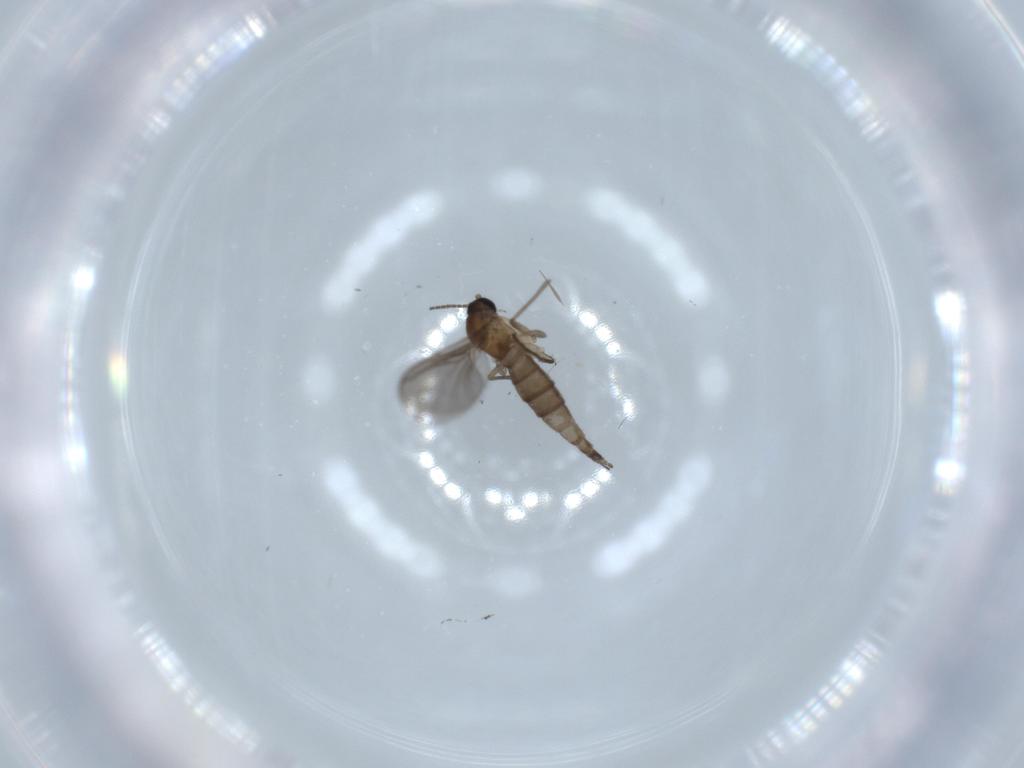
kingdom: Animalia
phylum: Arthropoda
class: Insecta
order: Diptera
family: Sciaridae
